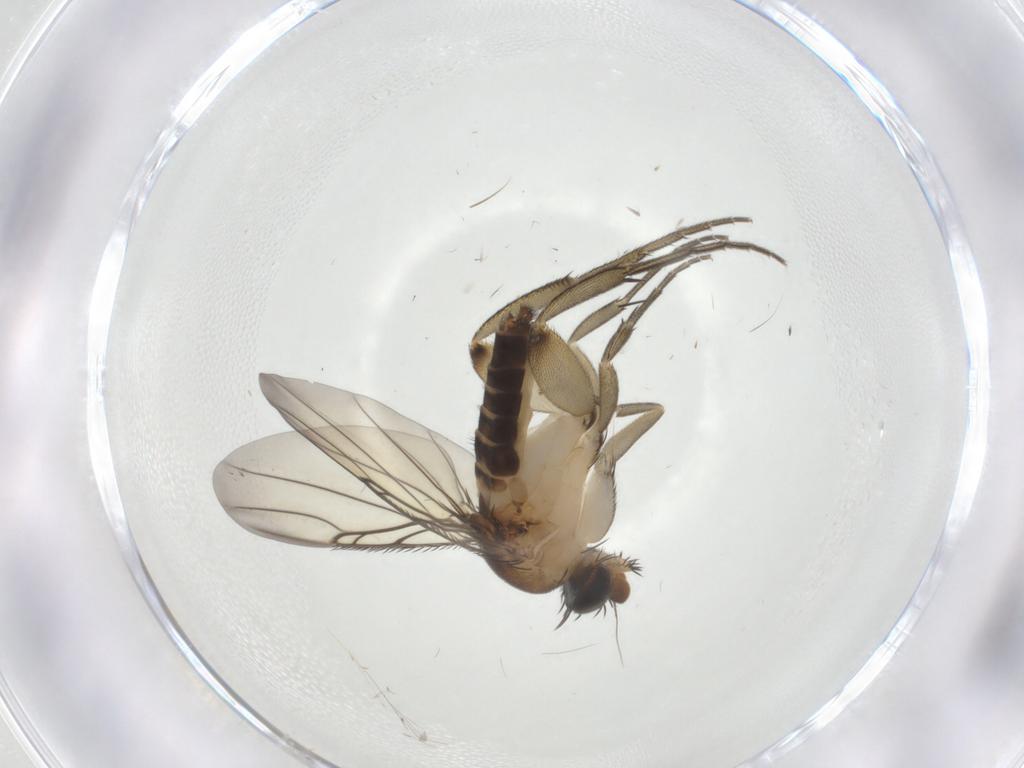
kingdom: Animalia
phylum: Arthropoda
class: Insecta
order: Diptera
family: Phoridae
